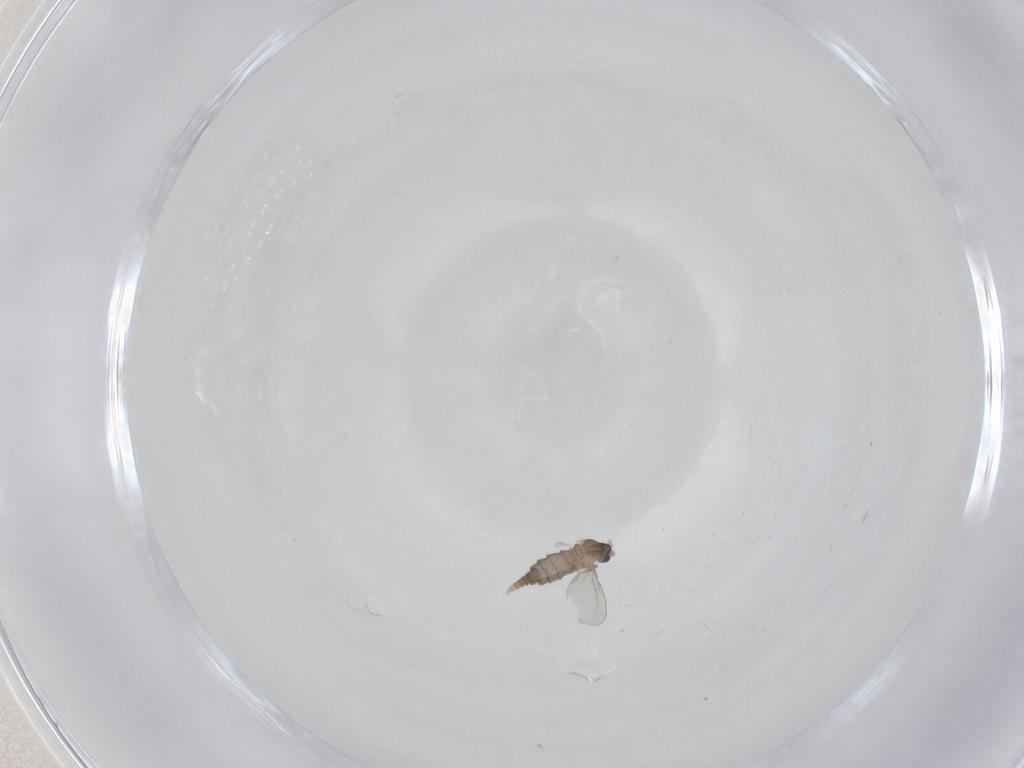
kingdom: Animalia
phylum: Arthropoda
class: Insecta
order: Diptera
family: Cecidomyiidae
